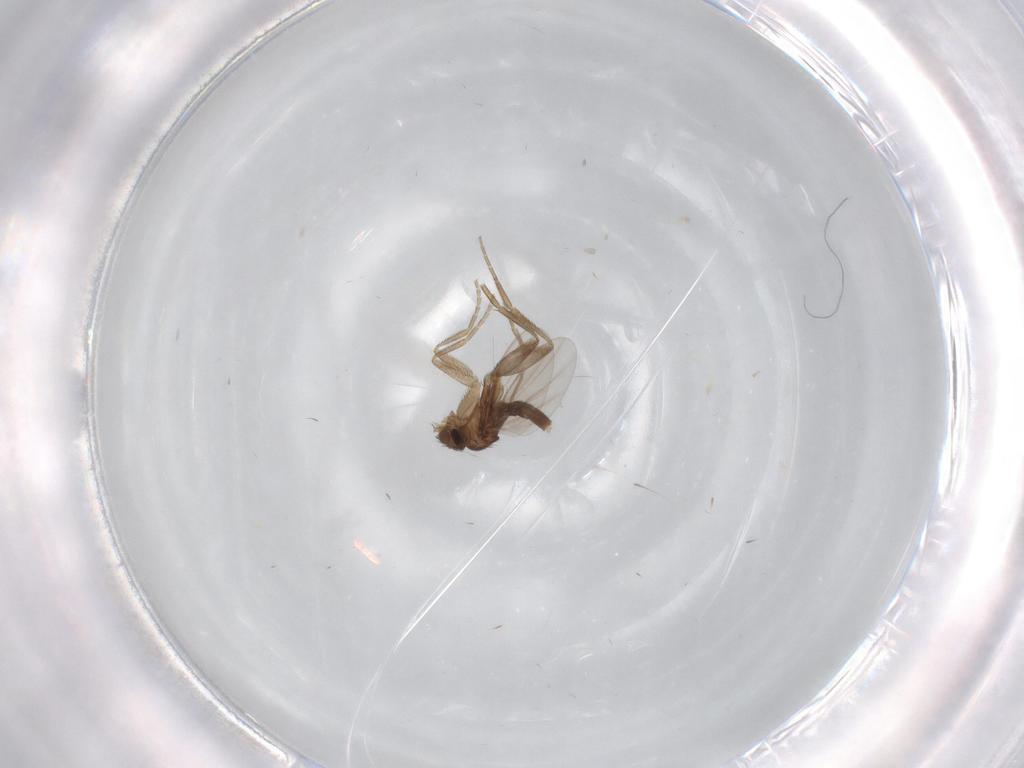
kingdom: Animalia
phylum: Arthropoda
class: Insecta
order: Diptera
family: Phoridae
